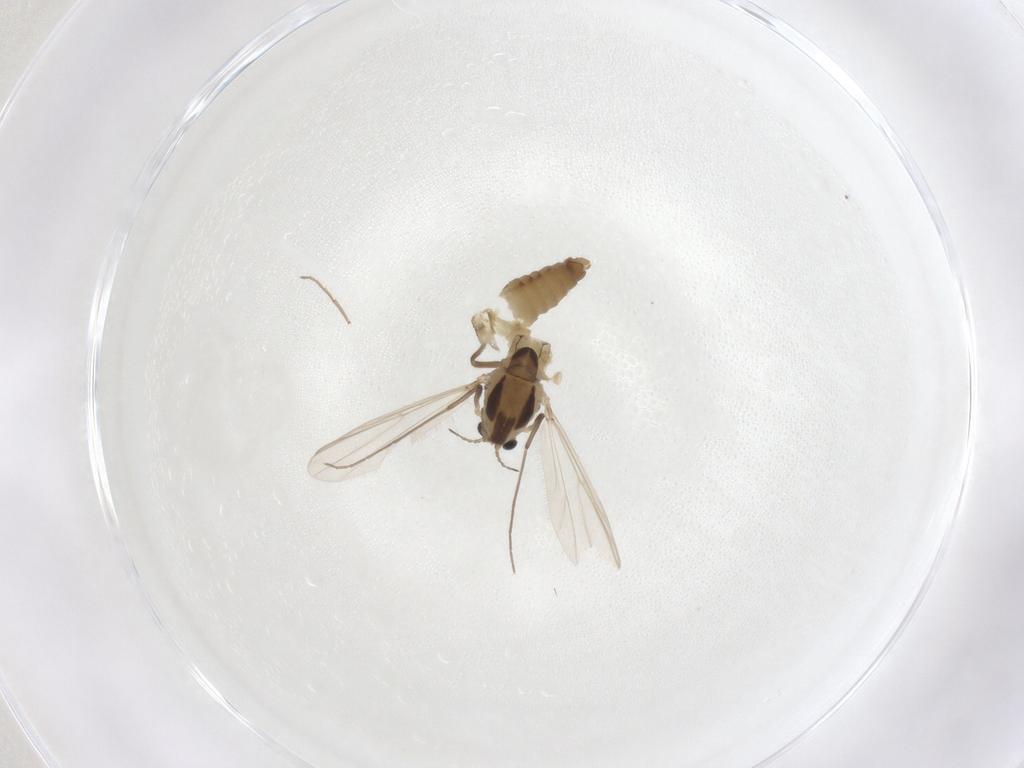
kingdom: Animalia
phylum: Arthropoda
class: Insecta
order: Diptera
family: Chironomidae
